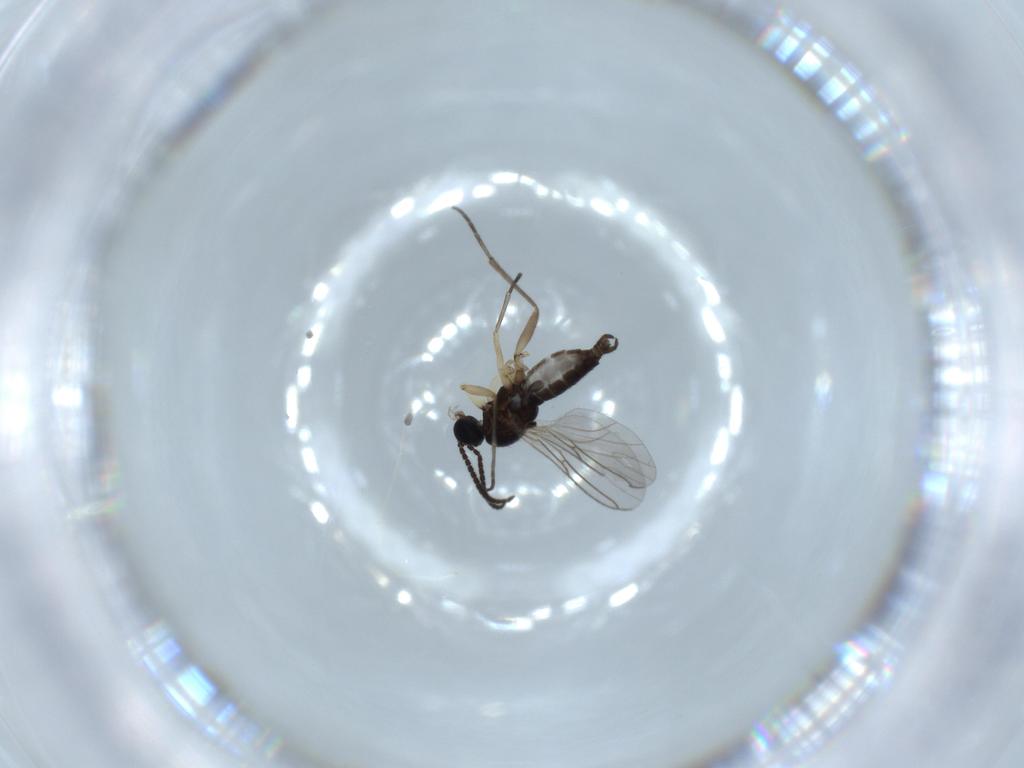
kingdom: Animalia
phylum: Arthropoda
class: Insecta
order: Diptera
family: Sciaridae
